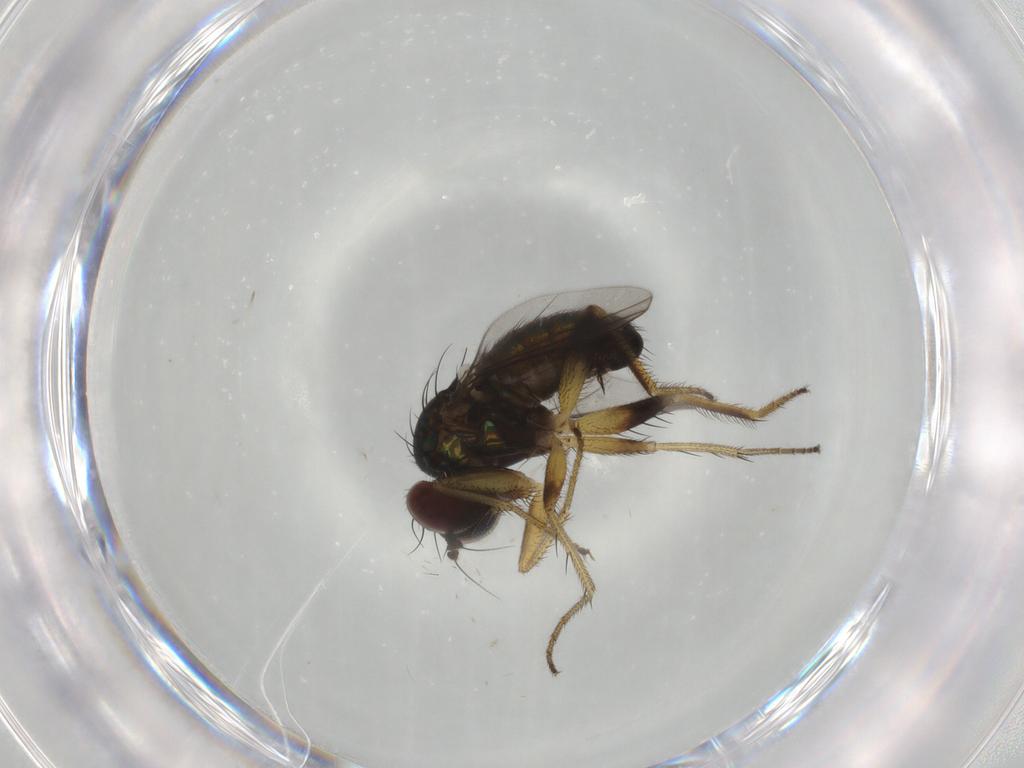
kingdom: Animalia
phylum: Arthropoda
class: Insecta
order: Diptera
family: Dolichopodidae
